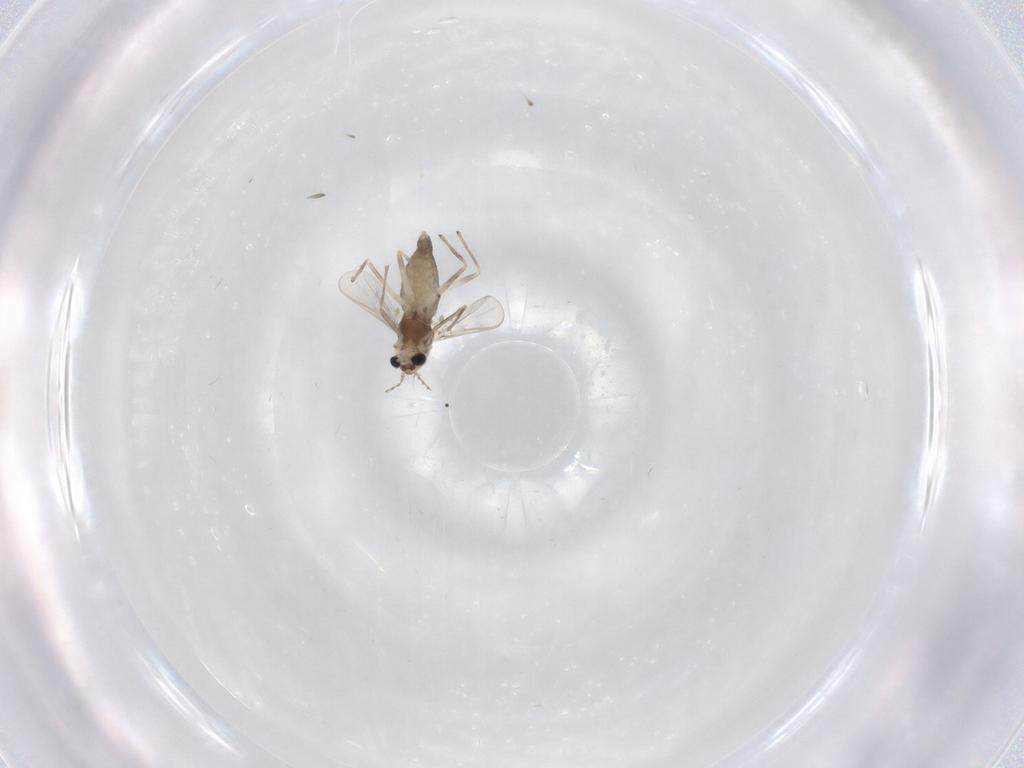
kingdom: Animalia
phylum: Arthropoda
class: Insecta
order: Diptera
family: Chironomidae
